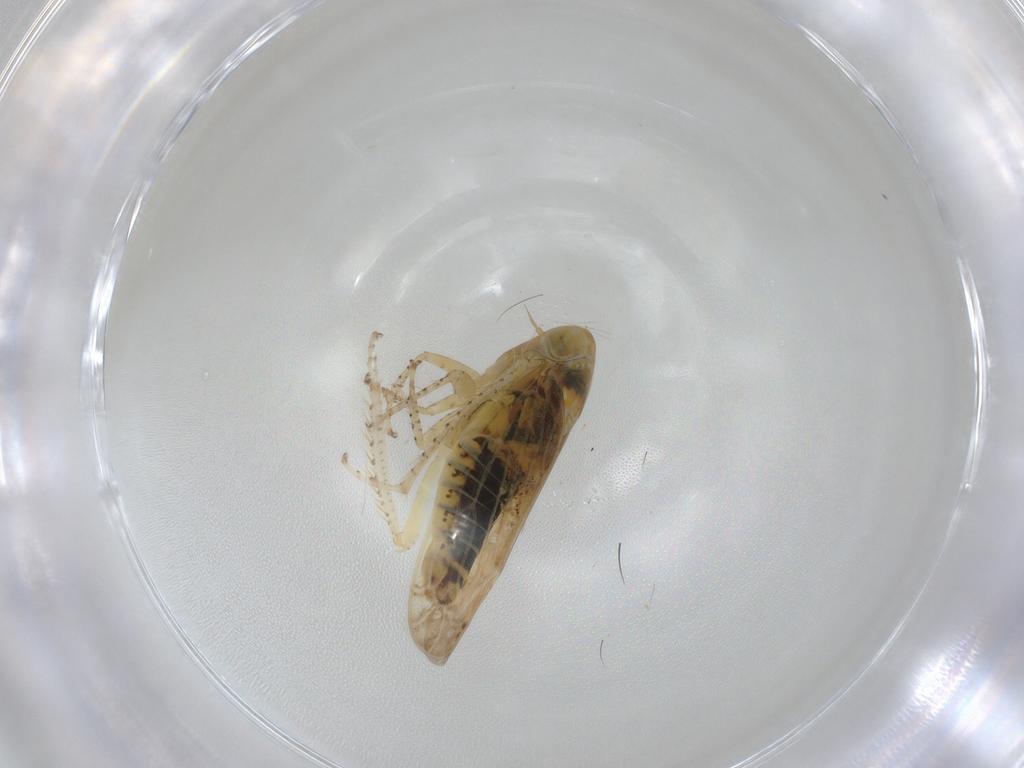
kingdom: Animalia
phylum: Arthropoda
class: Insecta
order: Hemiptera
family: Cicadellidae
